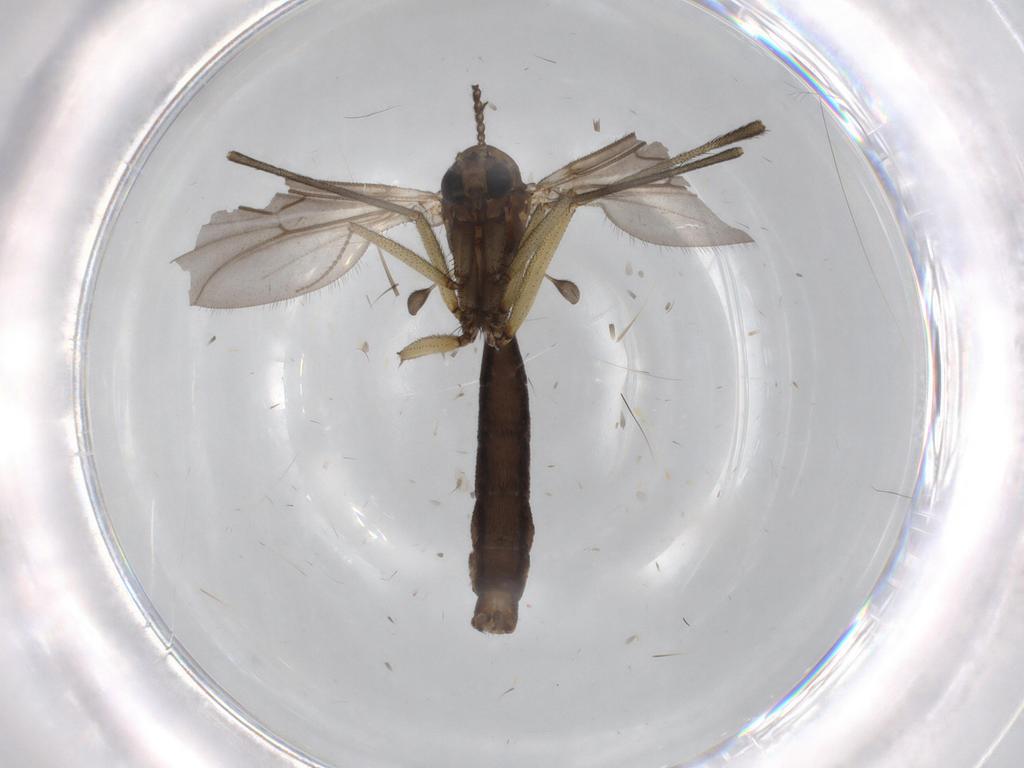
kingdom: Animalia
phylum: Arthropoda
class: Insecta
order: Diptera
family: Ditomyiidae
